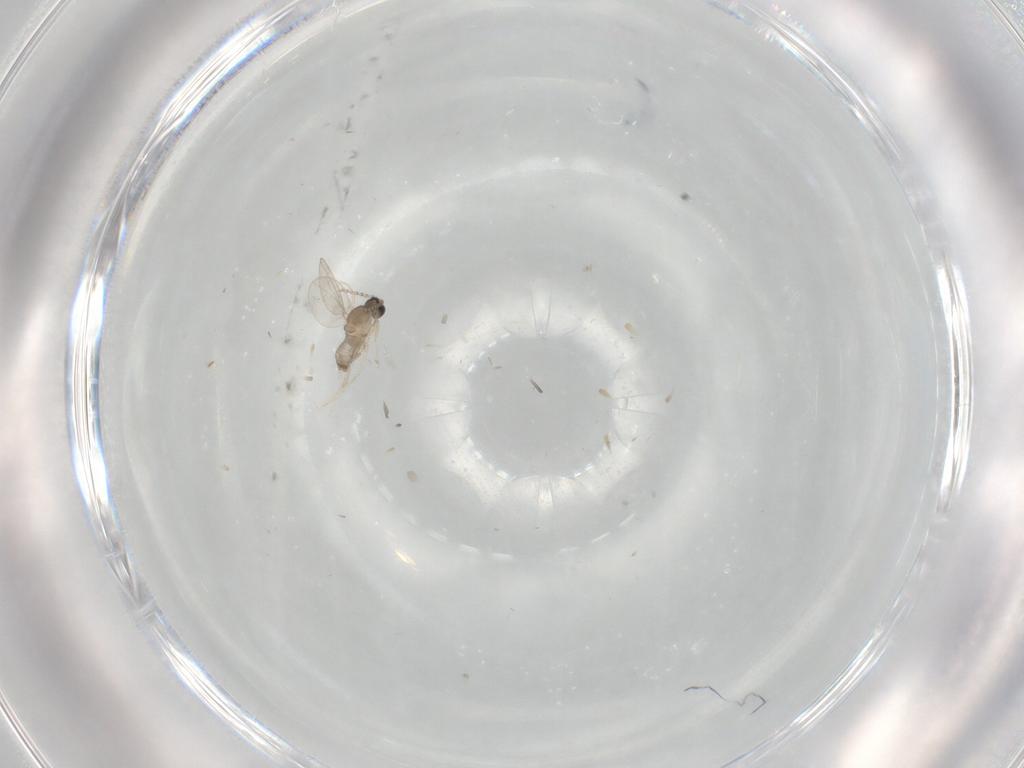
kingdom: Animalia
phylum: Arthropoda
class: Insecta
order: Diptera
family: Cecidomyiidae
